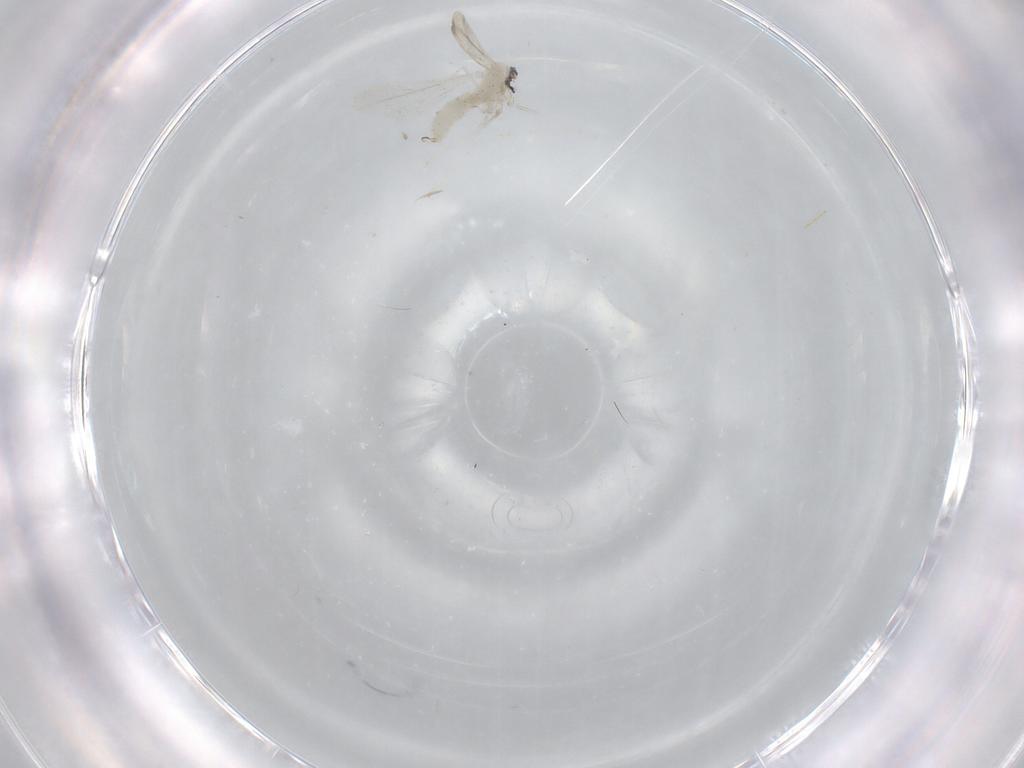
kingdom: Animalia
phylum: Arthropoda
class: Insecta
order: Diptera
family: Cecidomyiidae
